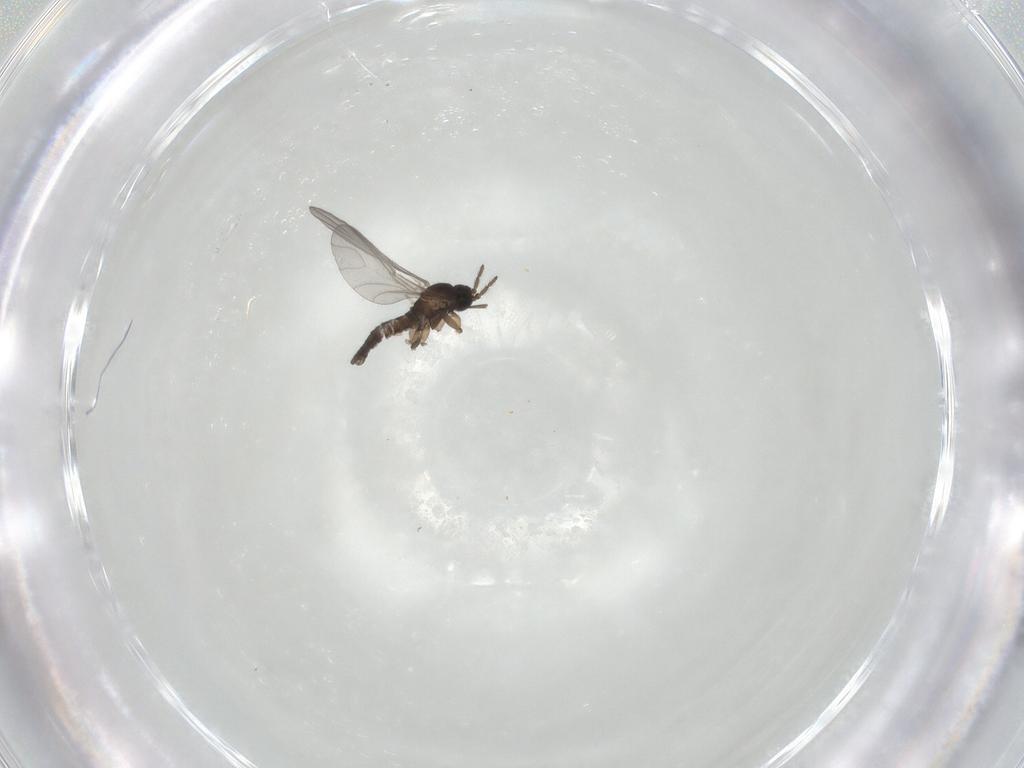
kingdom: Animalia
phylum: Arthropoda
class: Insecta
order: Diptera
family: Sciaridae
